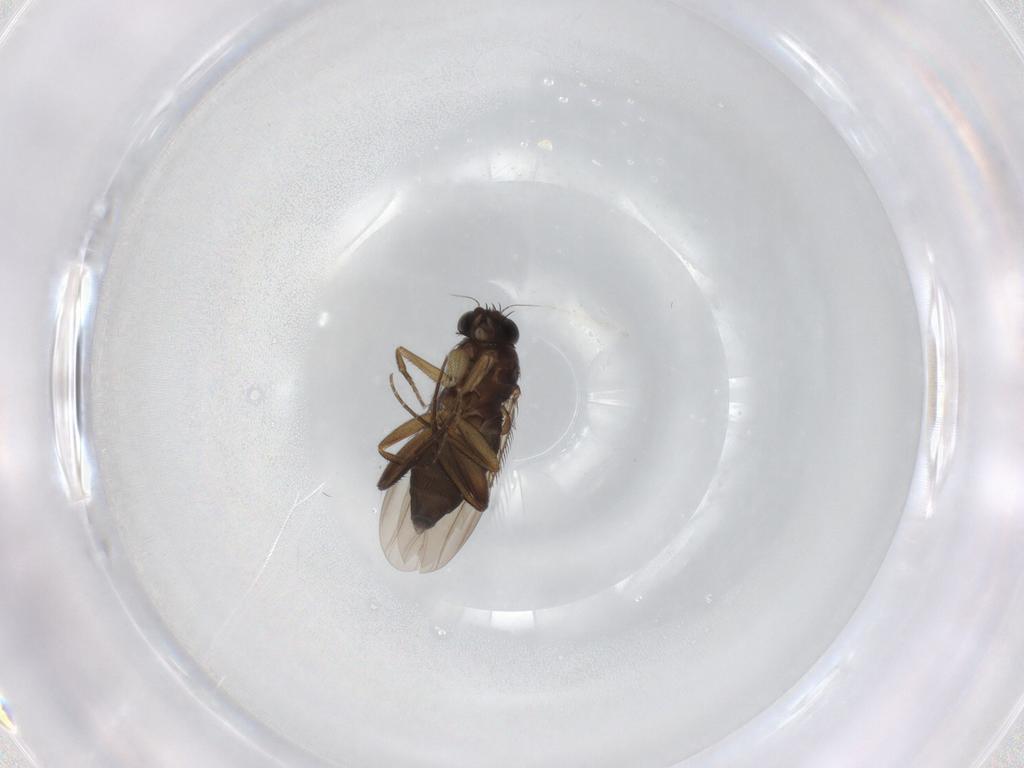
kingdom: Animalia
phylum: Arthropoda
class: Insecta
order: Diptera
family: Phoridae
